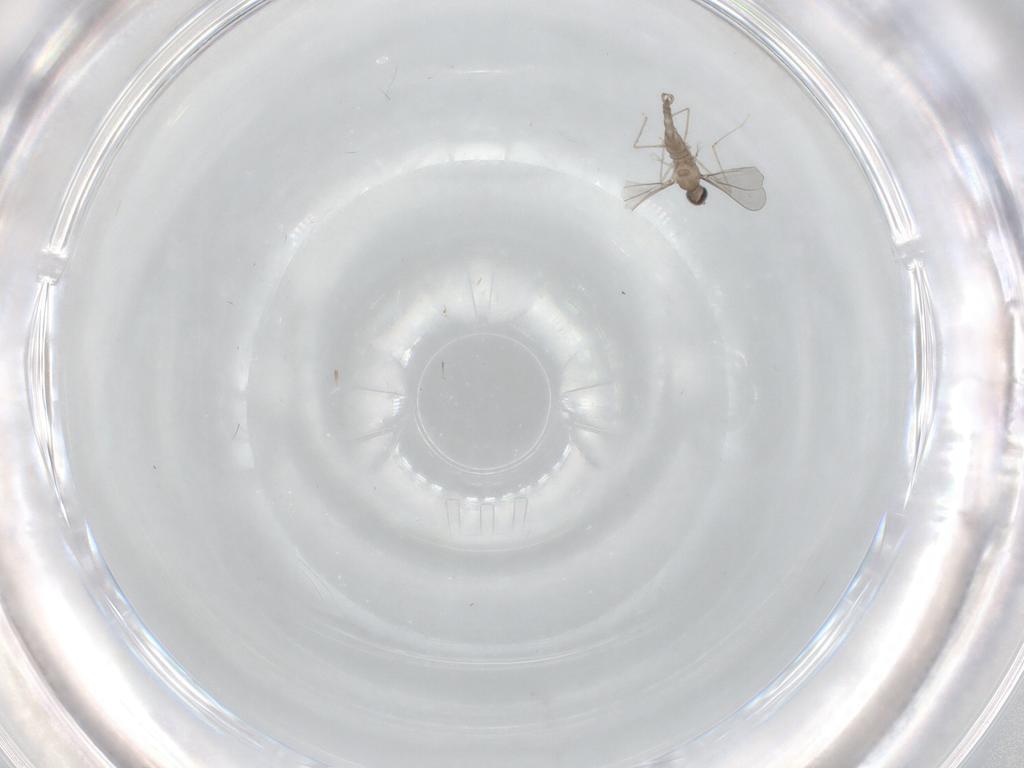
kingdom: Animalia
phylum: Arthropoda
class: Insecta
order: Diptera
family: Cecidomyiidae
